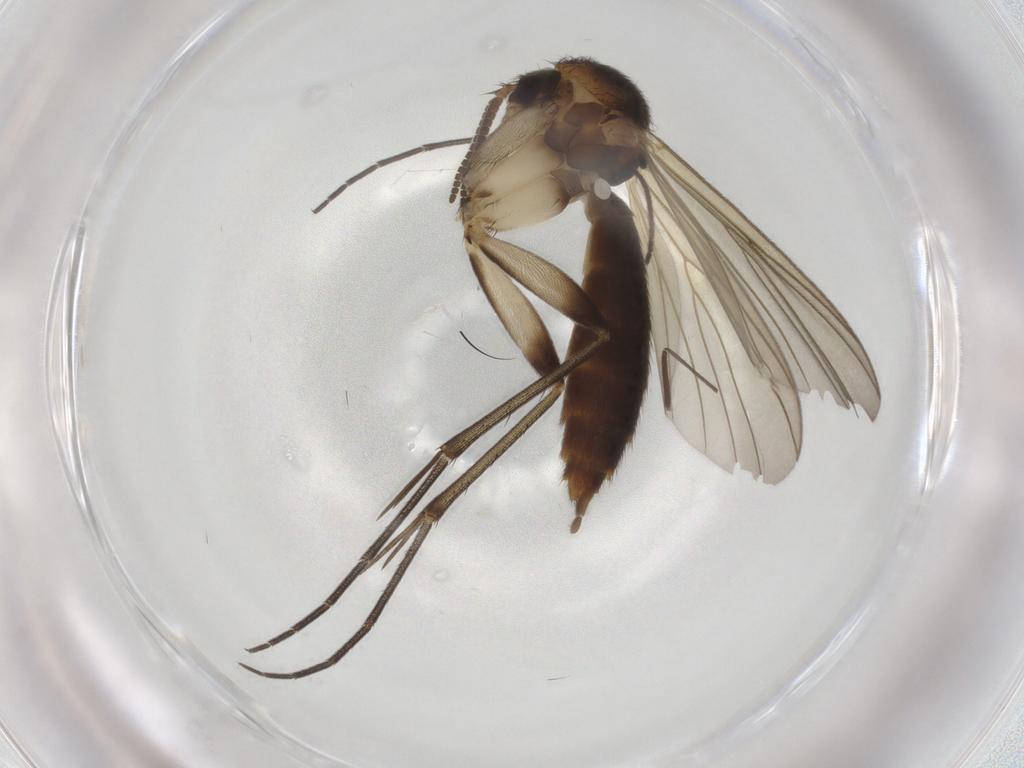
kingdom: Animalia
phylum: Arthropoda
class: Insecta
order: Diptera
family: Mycetophilidae
